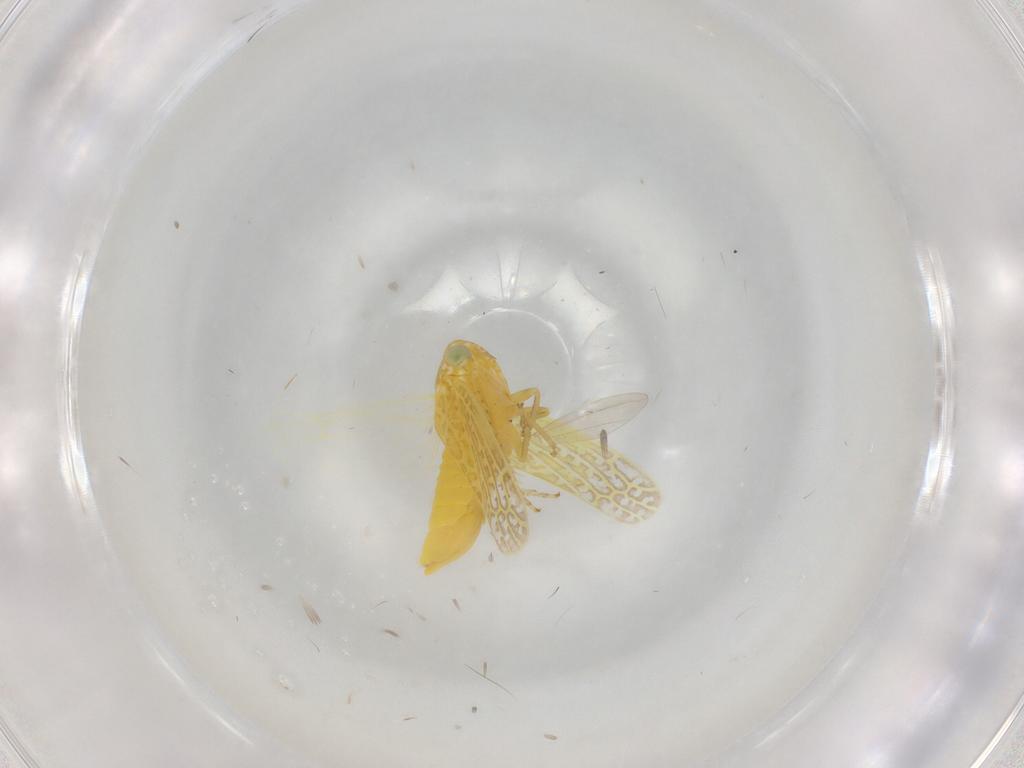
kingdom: Animalia
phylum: Arthropoda
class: Insecta
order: Hemiptera
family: Cicadellidae
